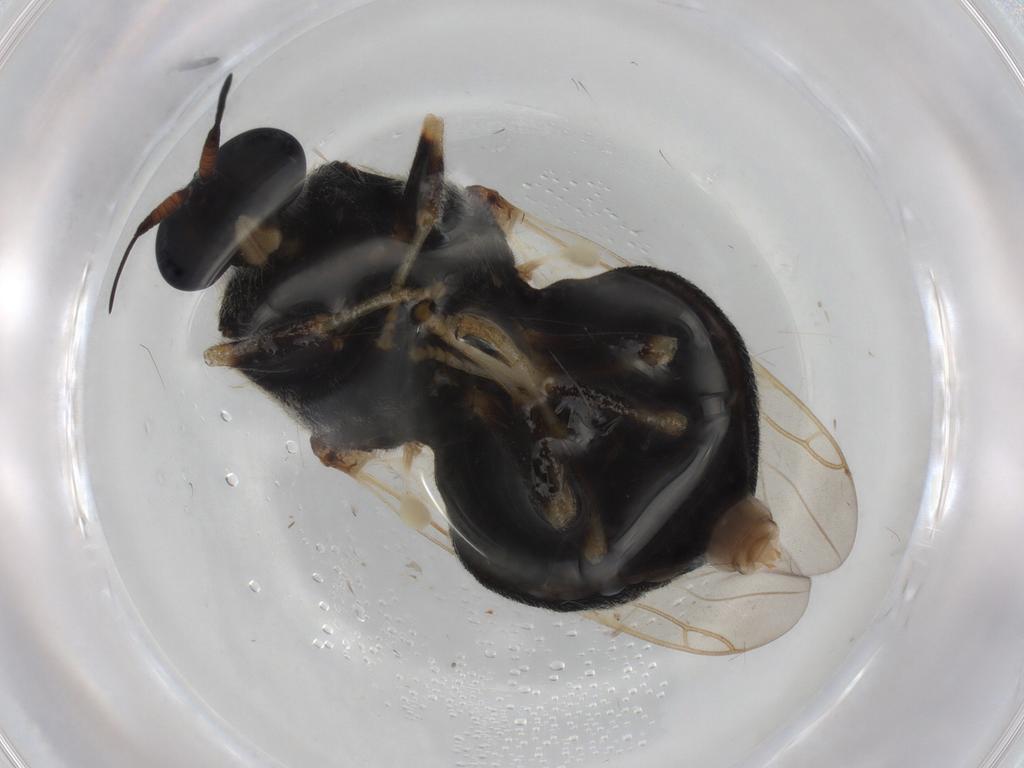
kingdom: Animalia
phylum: Arthropoda
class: Insecta
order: Diptera
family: Stratiomyidae
